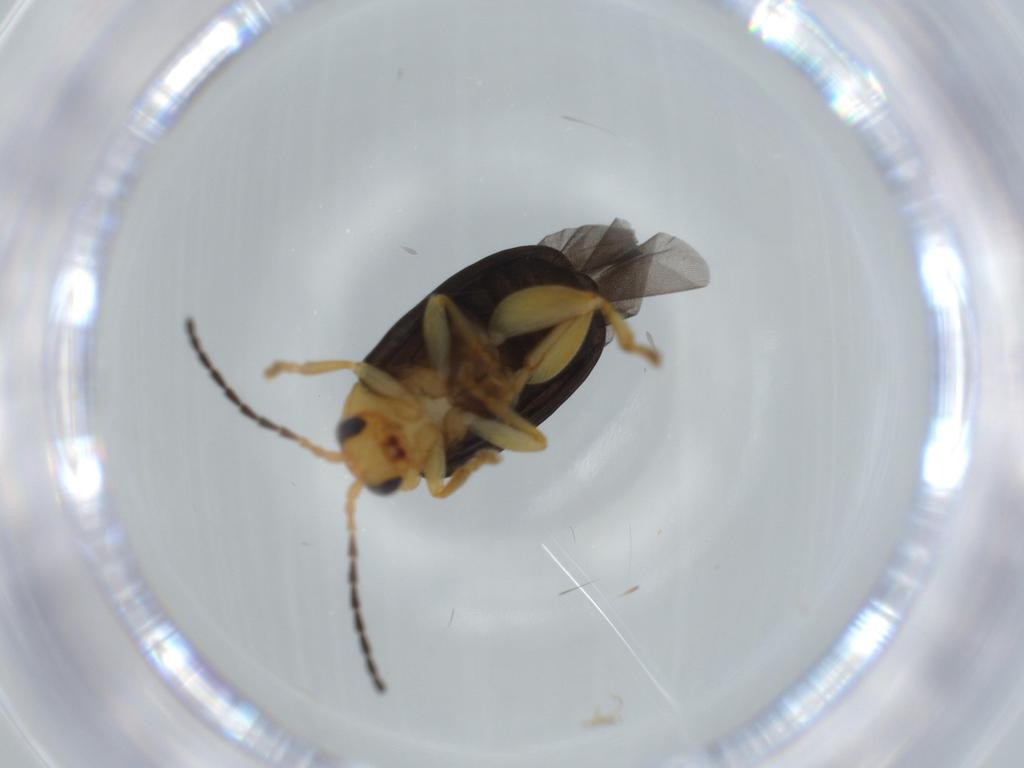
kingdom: Animalia
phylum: Arthropoda
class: Insecta
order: Coleoptera
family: Chrysomelidae
